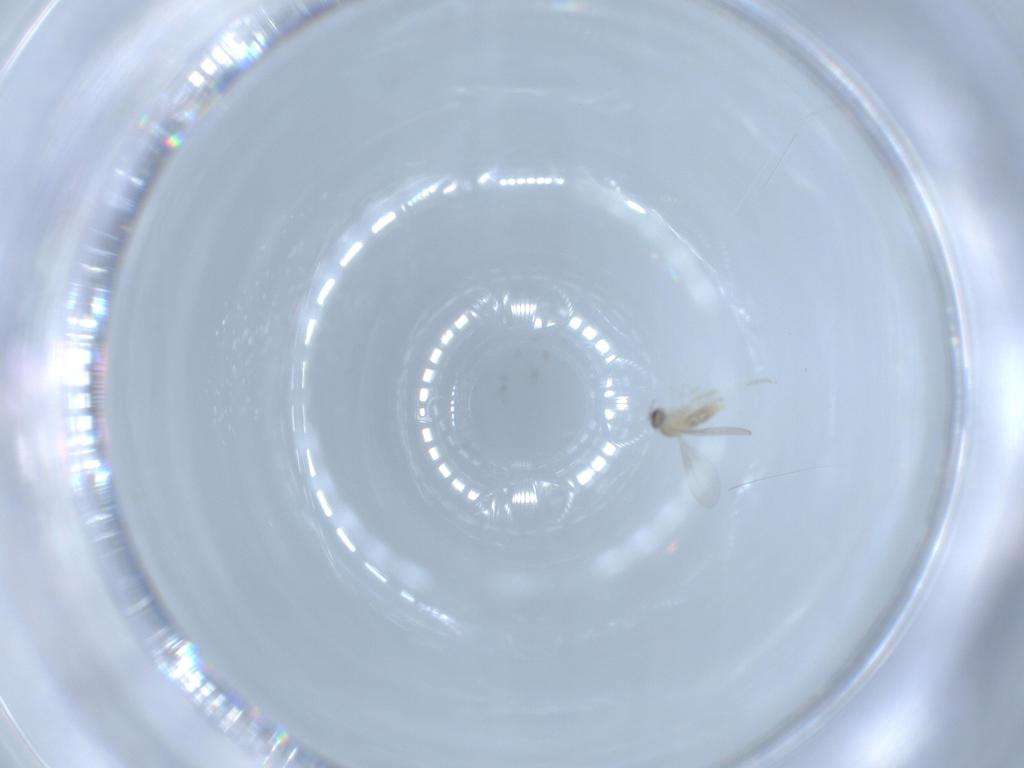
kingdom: Animalia
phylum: Arthropoda
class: Insecta
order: Diptera
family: Cecidomyiidae
